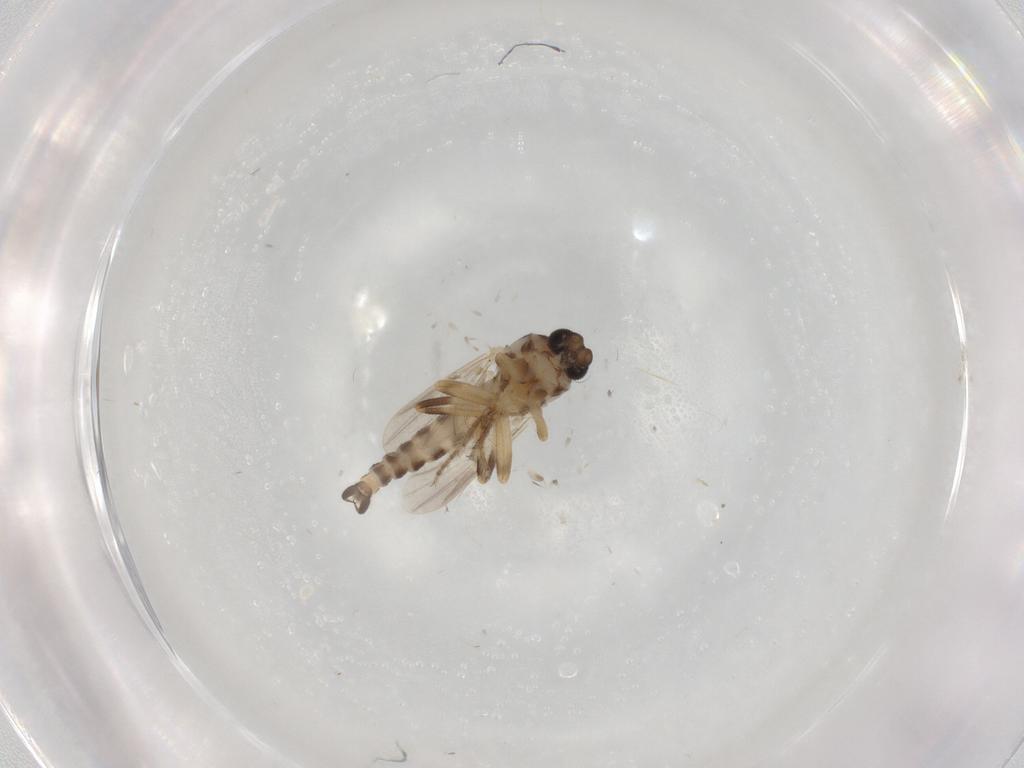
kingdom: Animalia
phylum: Arthropoda
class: Insecta
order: Diptera
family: Ceratopogonidae
